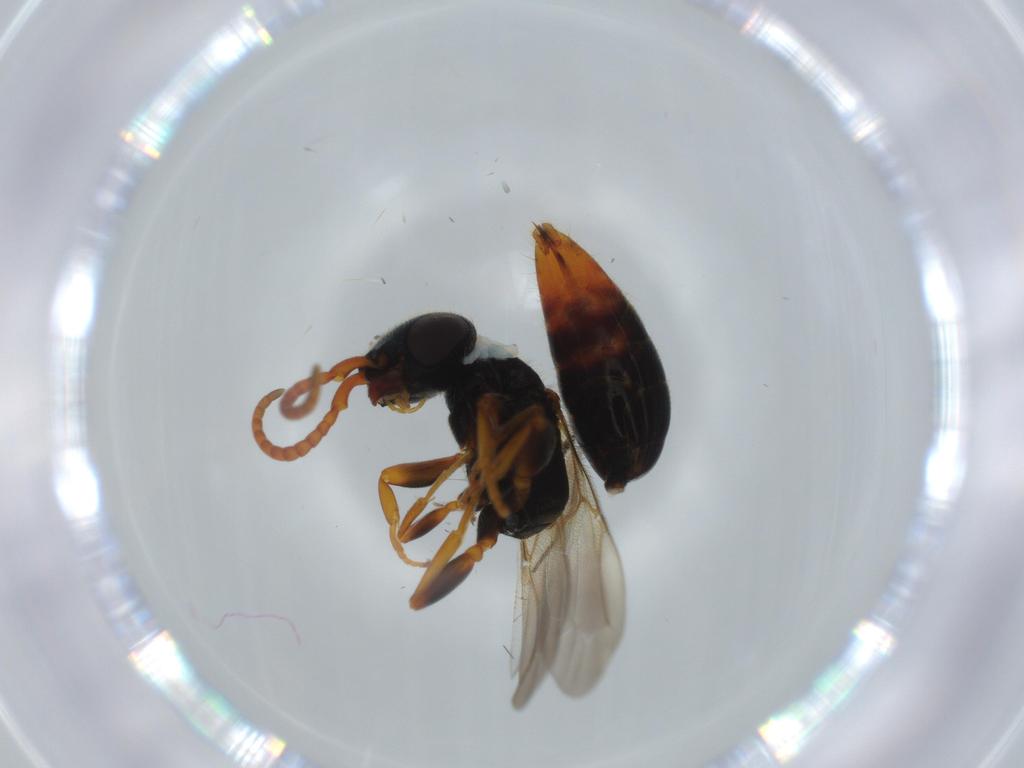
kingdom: Animalia
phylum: Arthropoda
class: Insecta
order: Hymenoptera
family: Bethylidae
